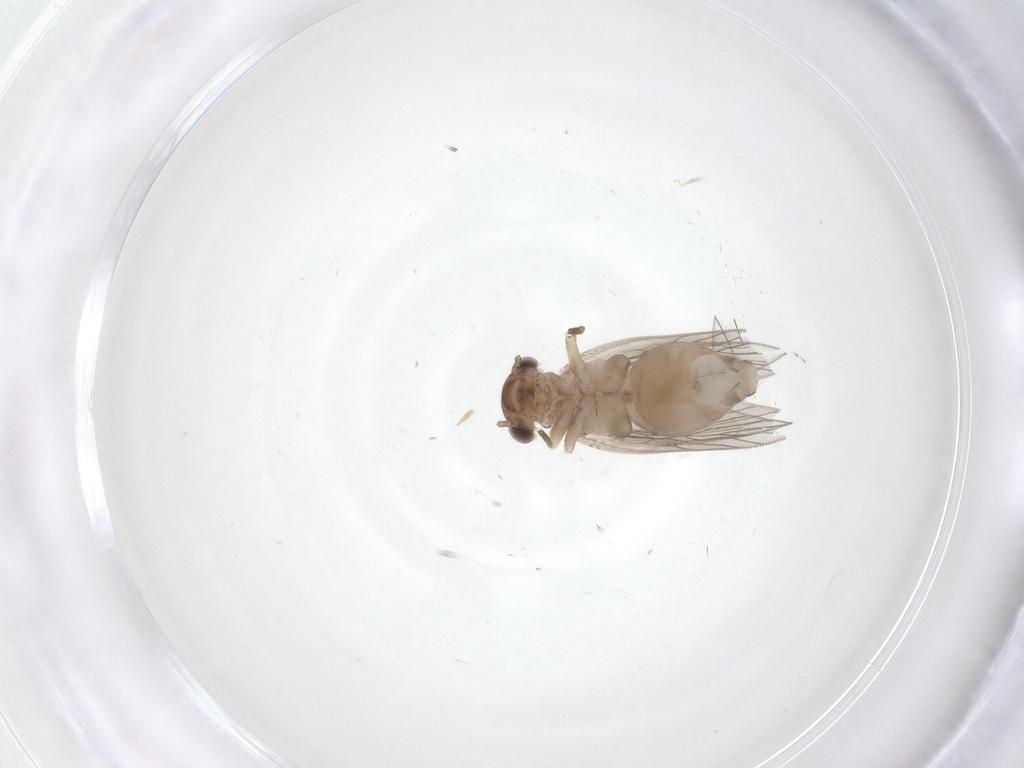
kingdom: Animalia
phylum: Arthropoda
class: Insecta
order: Psocodea
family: Lepidopsocidae
